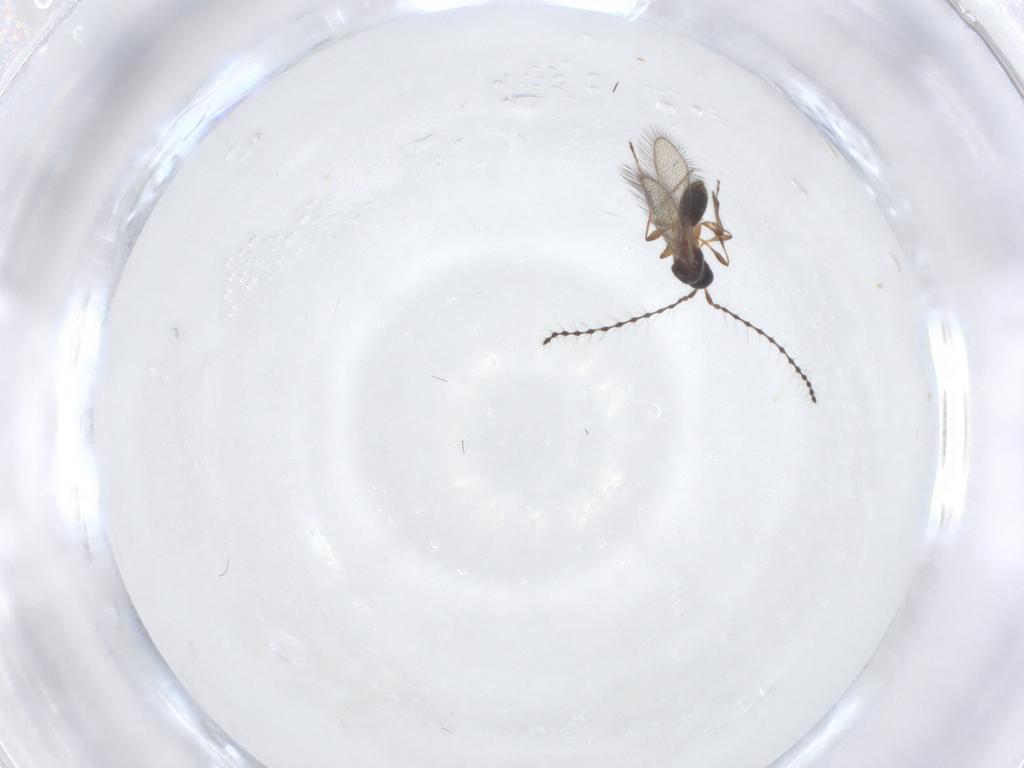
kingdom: Animalia
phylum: Arthropoda
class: Insecta
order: Hymenoptera
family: Diapriidae
